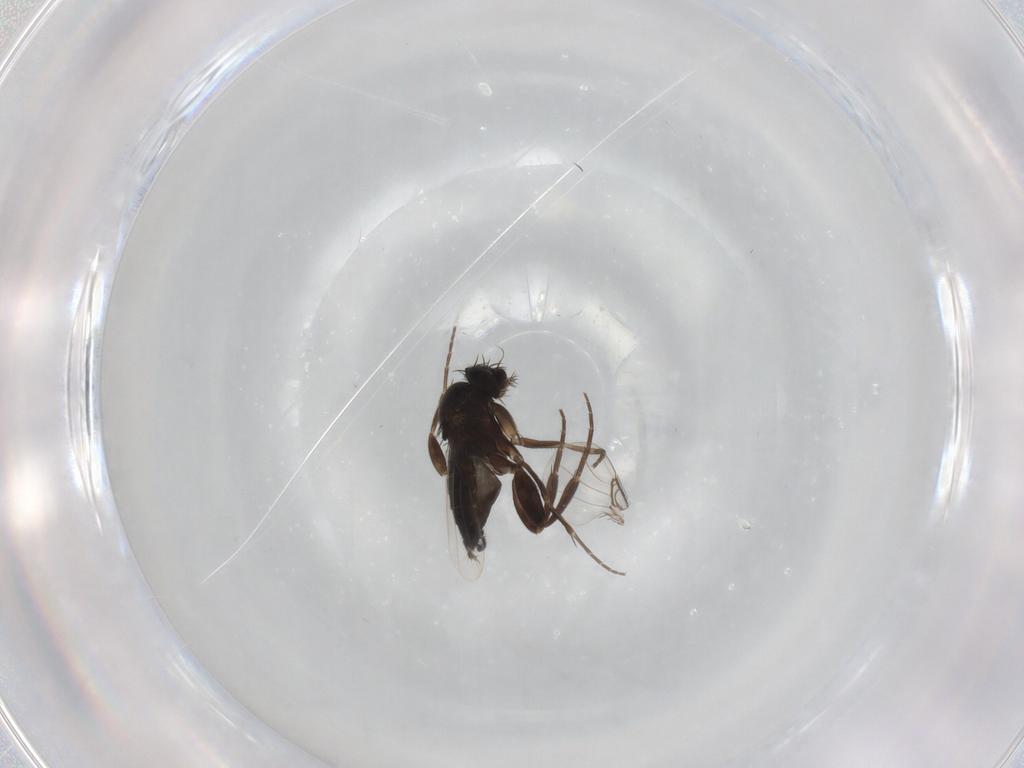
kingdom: Animalia
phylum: Arthropoda
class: Insecta
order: Diptera
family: Phoridae
